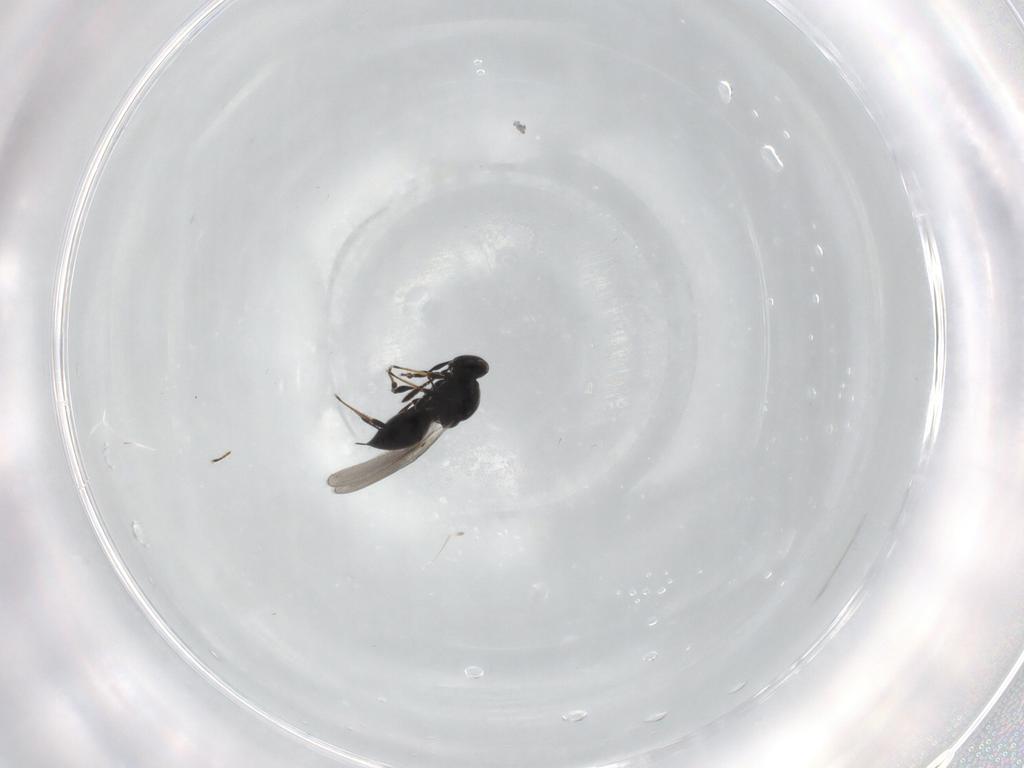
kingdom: Animalia
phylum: Arthropoda
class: Insecta
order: Hymenoptera
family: Platygastridae
